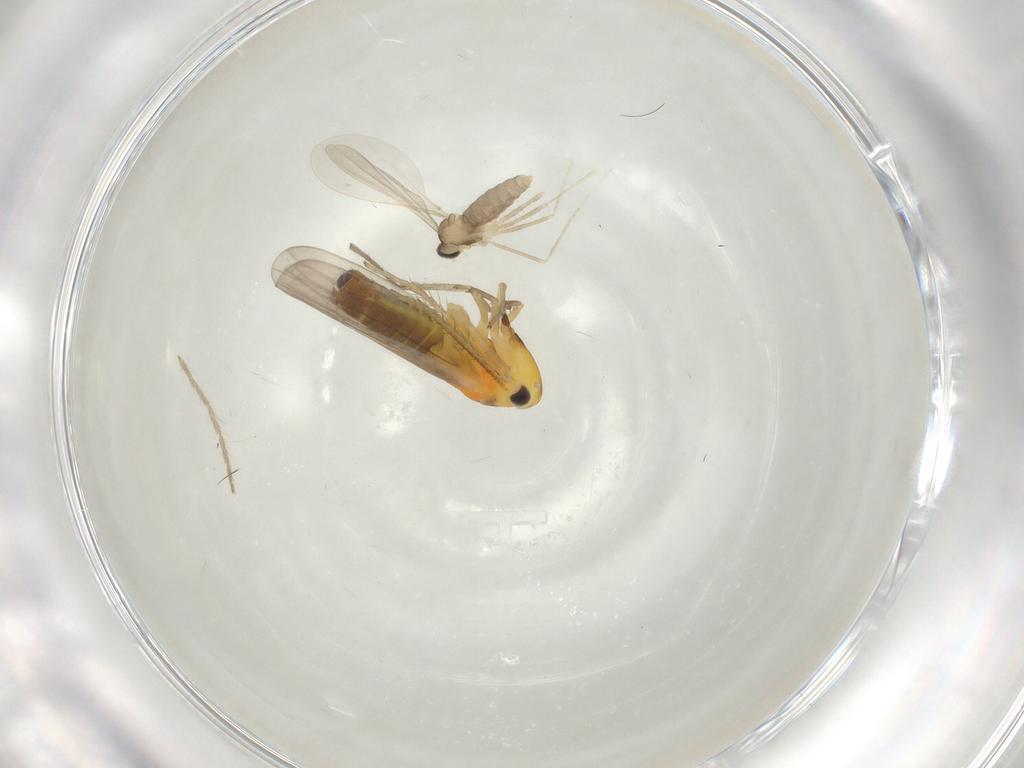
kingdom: Animalia
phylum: Arthropoda
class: Insecta
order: Diptera
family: Cecidomyiidae
